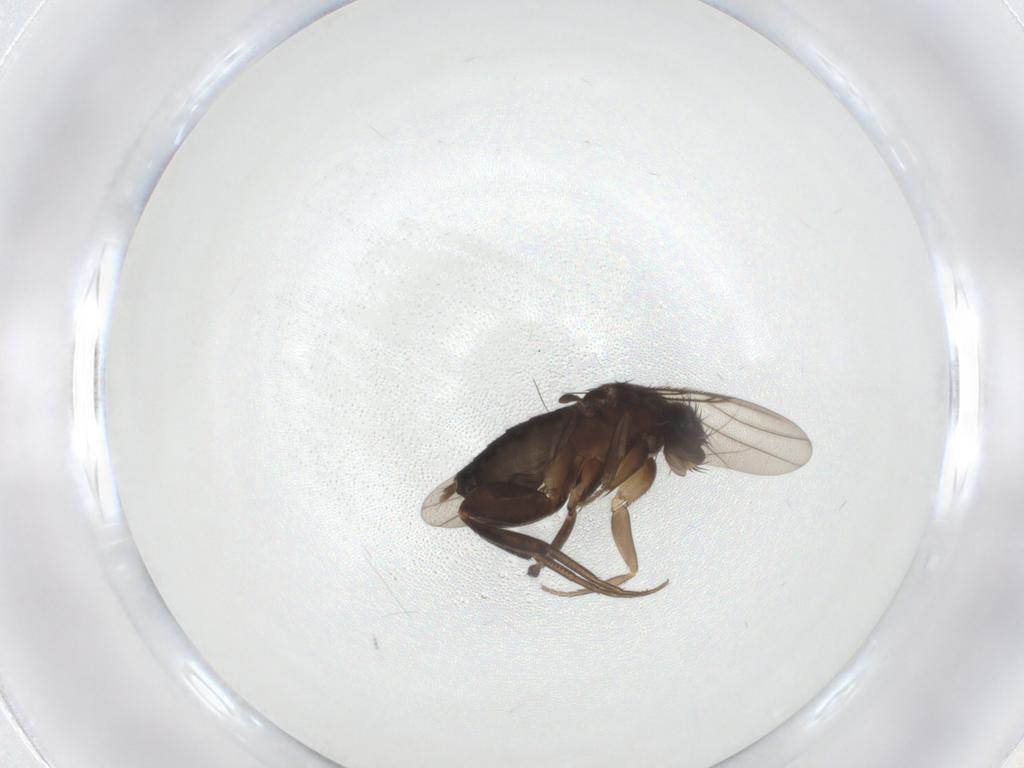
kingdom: Animalia
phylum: Arthropoda
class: Insecta
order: Diptera
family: Phoridae
